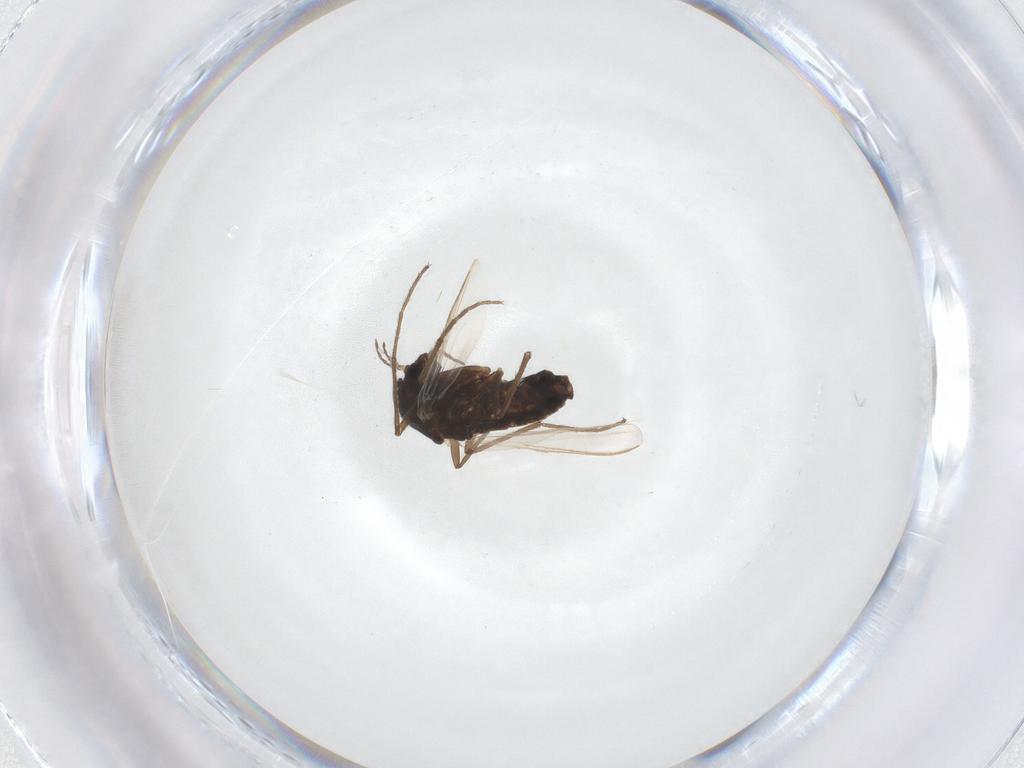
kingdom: Animalia
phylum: Arthropoda
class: Insecta
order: Diptera
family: Chironomidae
